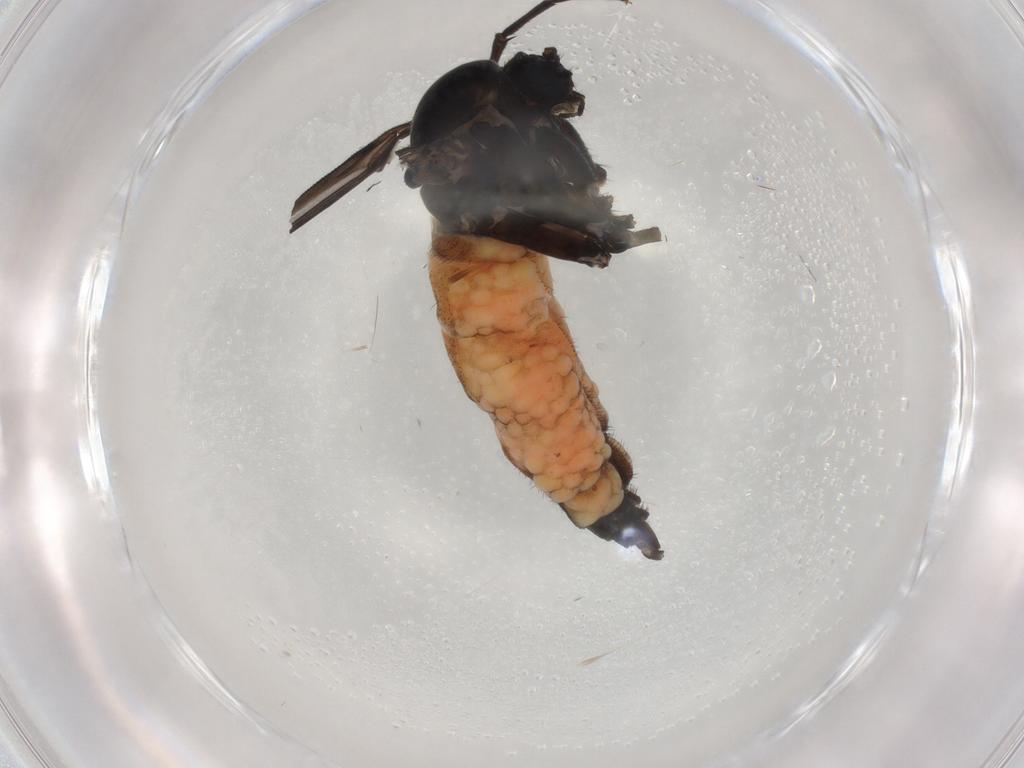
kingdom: Animalia
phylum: Arthropoda
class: Insecta
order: Diptera
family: Sciaridae
